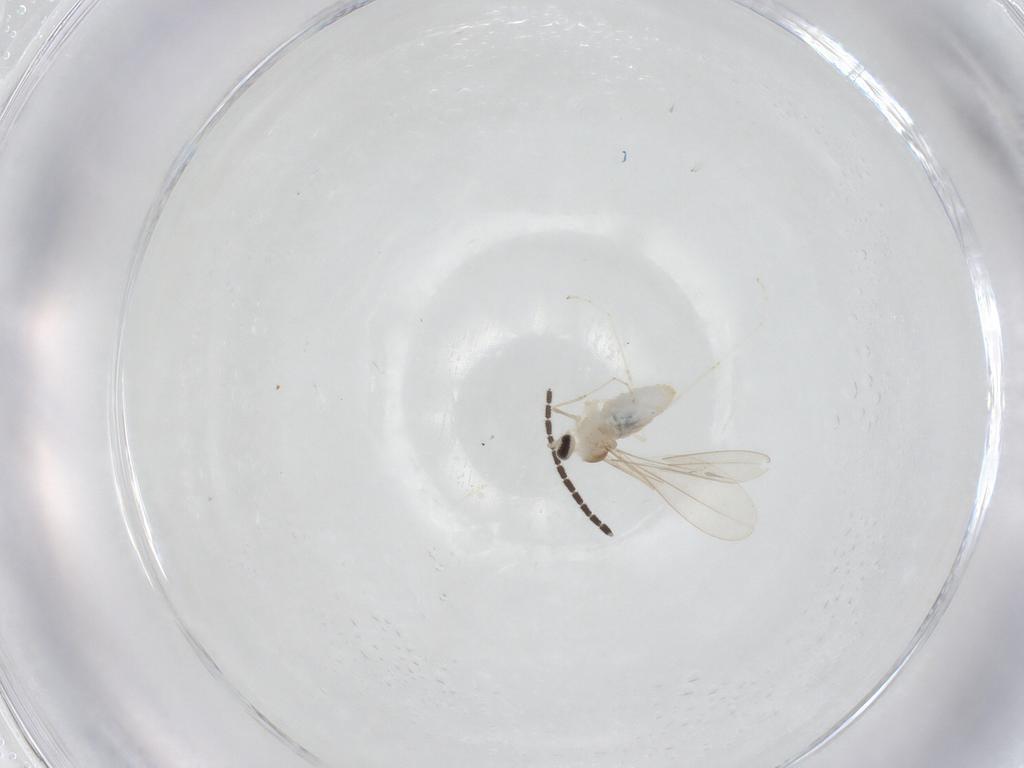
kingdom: Animalia
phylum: Arthropoda
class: Insecta
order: Diptera
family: Cecidomyiidae
